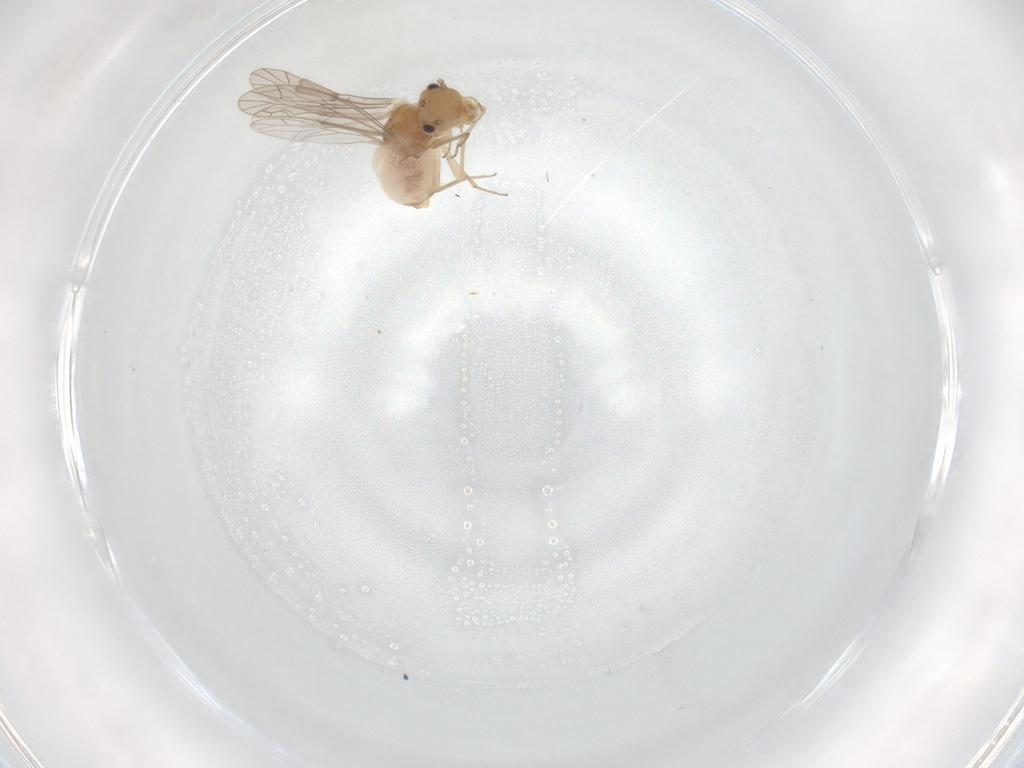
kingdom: Animalia
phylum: Arthropoda
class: Insecta
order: Psocodea
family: Lachesillidae
